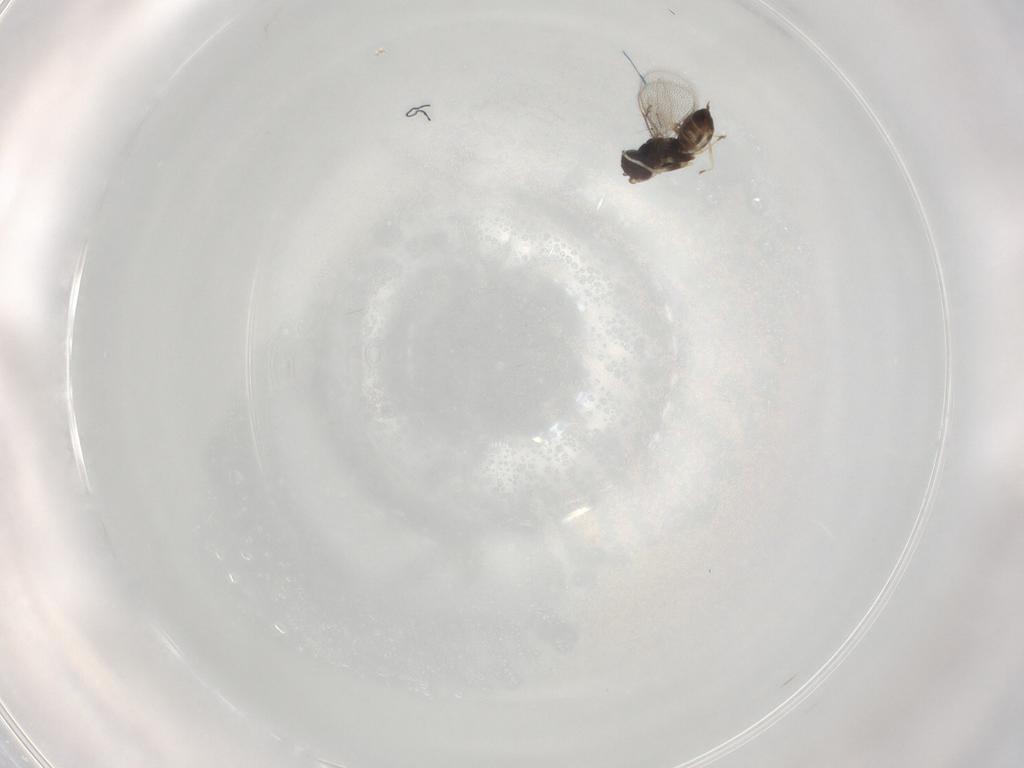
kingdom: Animalia
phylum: Arthropoda
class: Insecta
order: Hymenoptera
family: Eulophidae
